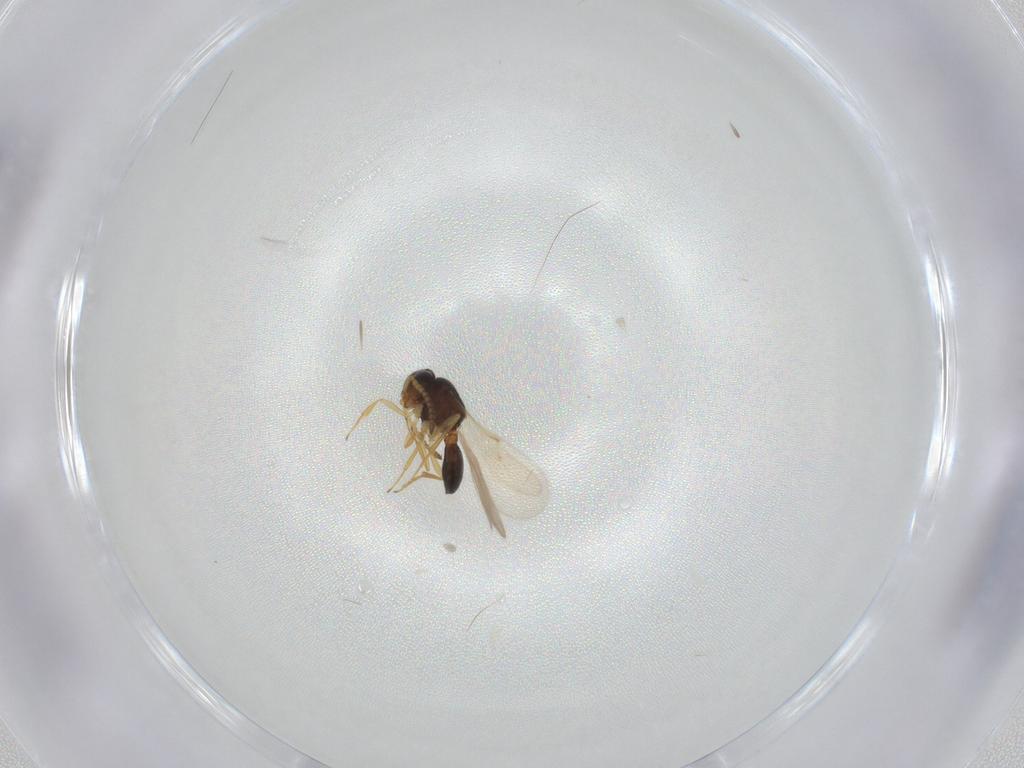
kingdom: Animalia
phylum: Arthropoda
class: Insecta
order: Hymenoptera
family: Scelionidae
